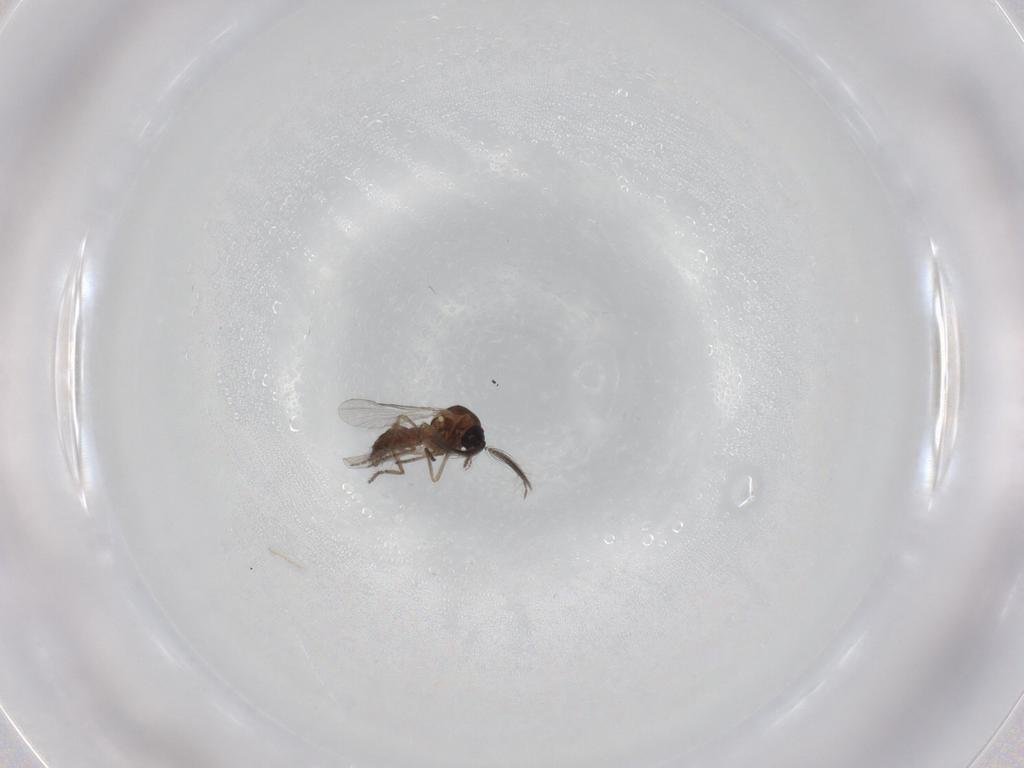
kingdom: Animalia
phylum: Arthropoda
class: Insecta
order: Diptera
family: Ceratopogonidae
